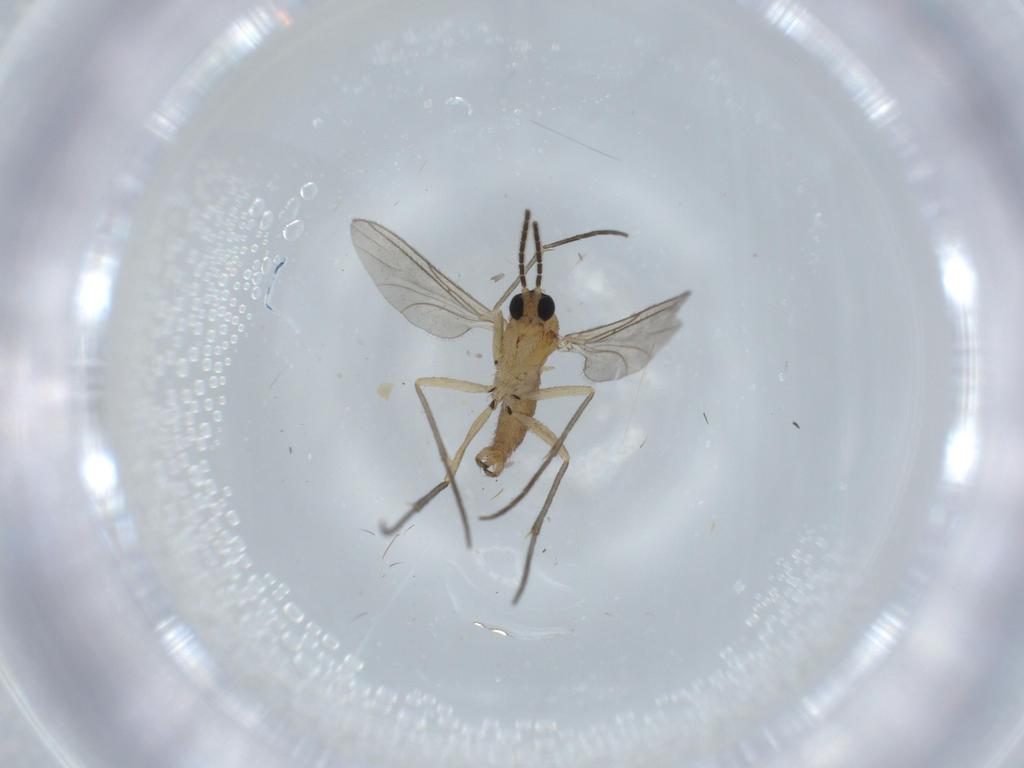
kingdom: Animalia
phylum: Arthropoda
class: Insecta
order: Diptera
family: Sciaridae
